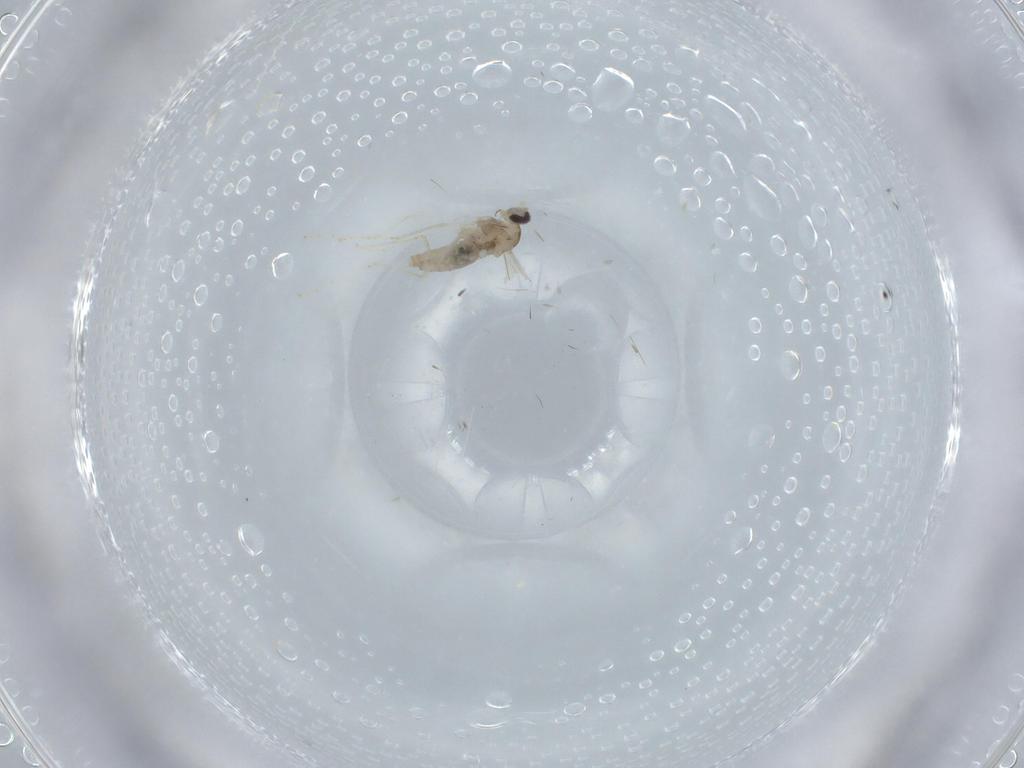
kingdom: Animalia
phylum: Arthropoda
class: Insecta
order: Diptera
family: Cecidomyiidae
